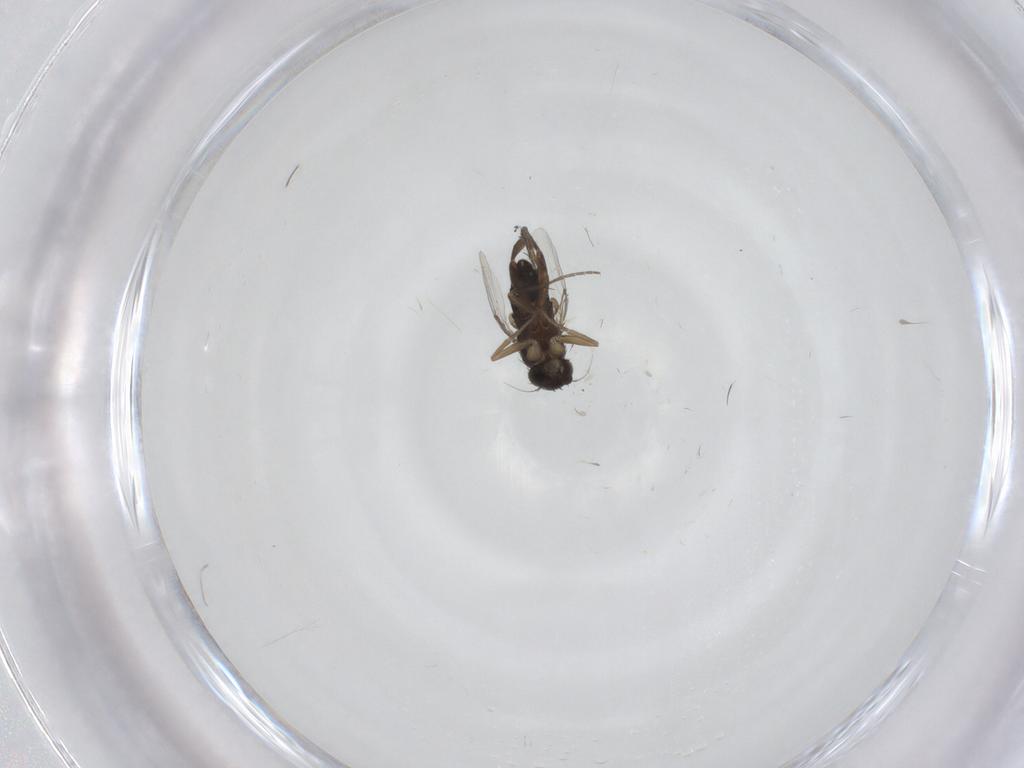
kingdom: Animalia
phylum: Arthropoda
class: Insecta
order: Diptera
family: Phoridae
